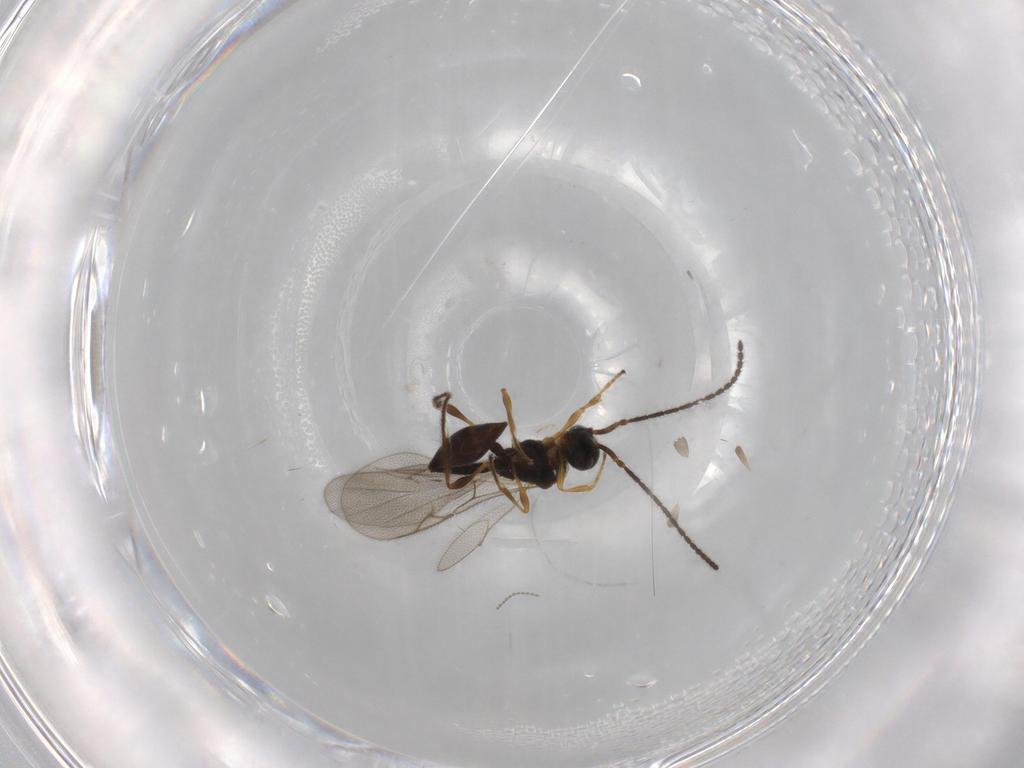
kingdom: Animalia
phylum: Arthropoda
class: Insecta
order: Hymenoptera
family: Diapriidae
